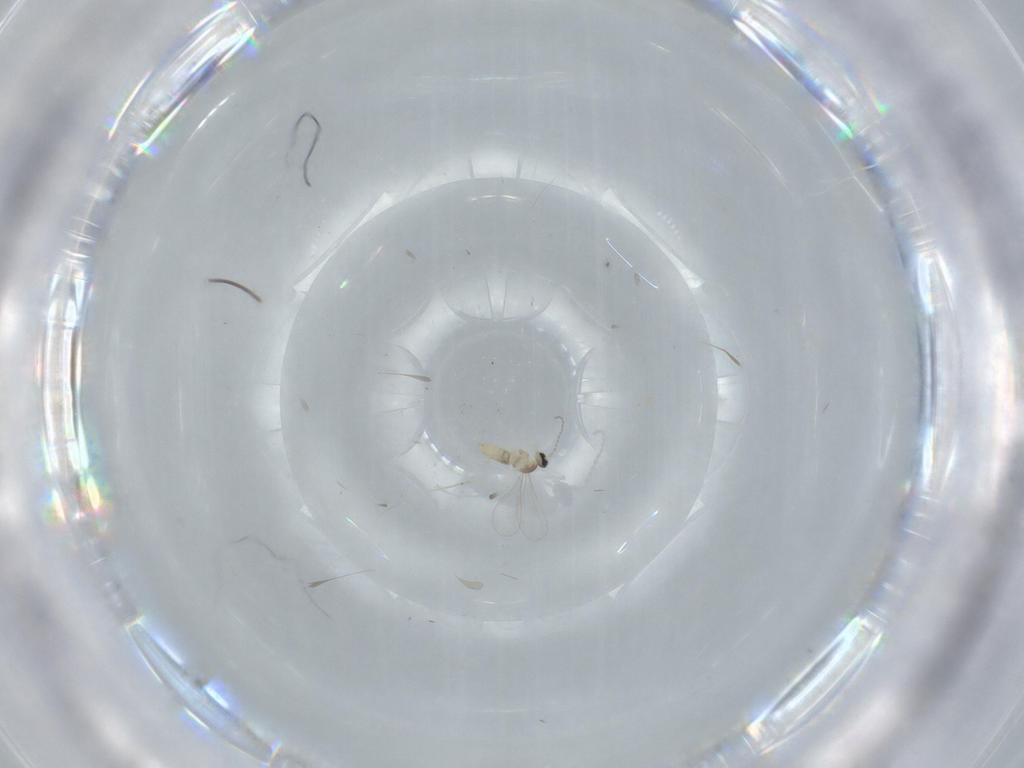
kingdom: Animalia
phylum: Arthropoda
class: Insecta
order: Diptera
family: Cecidomyiidae
